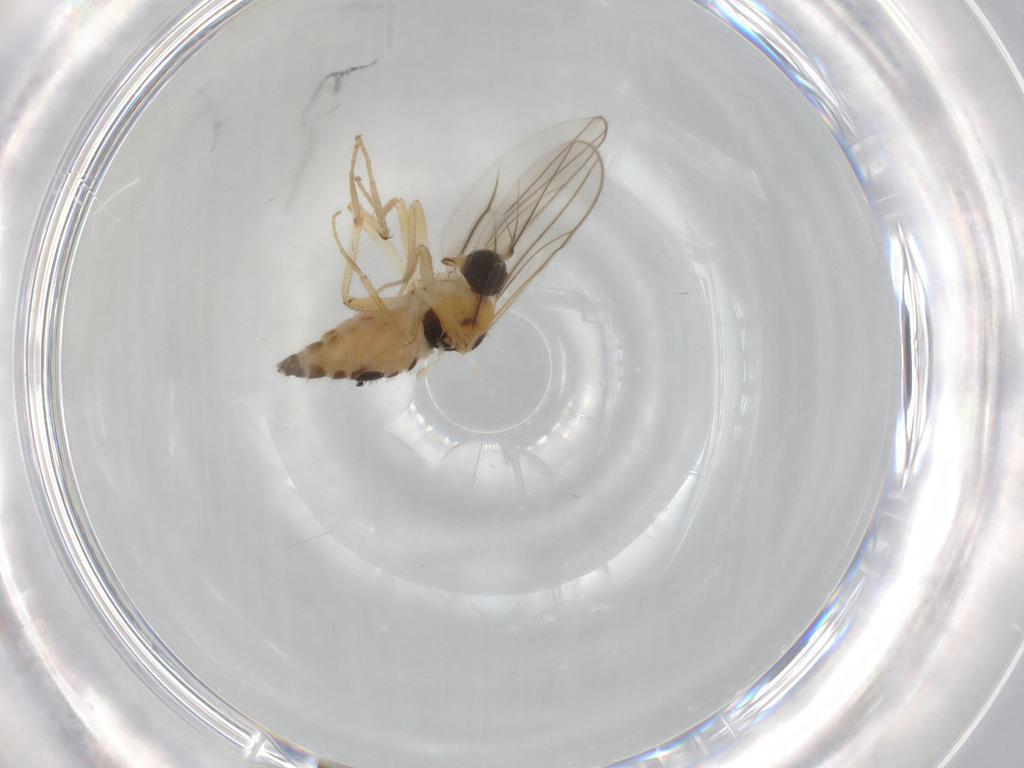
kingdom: Animalia
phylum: Arthropoda
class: Insecta
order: Diptera
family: Hybotidae
